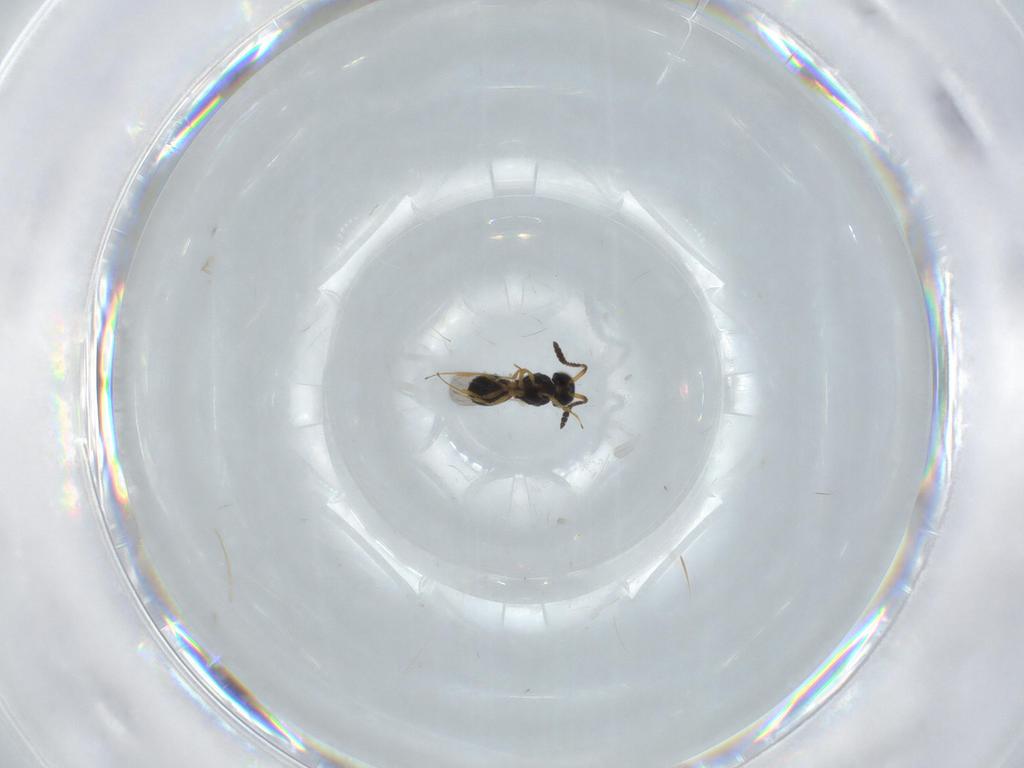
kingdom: Animalia
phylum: Arthropoda
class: Insecta
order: Hymenoptera
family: Scelionidae
